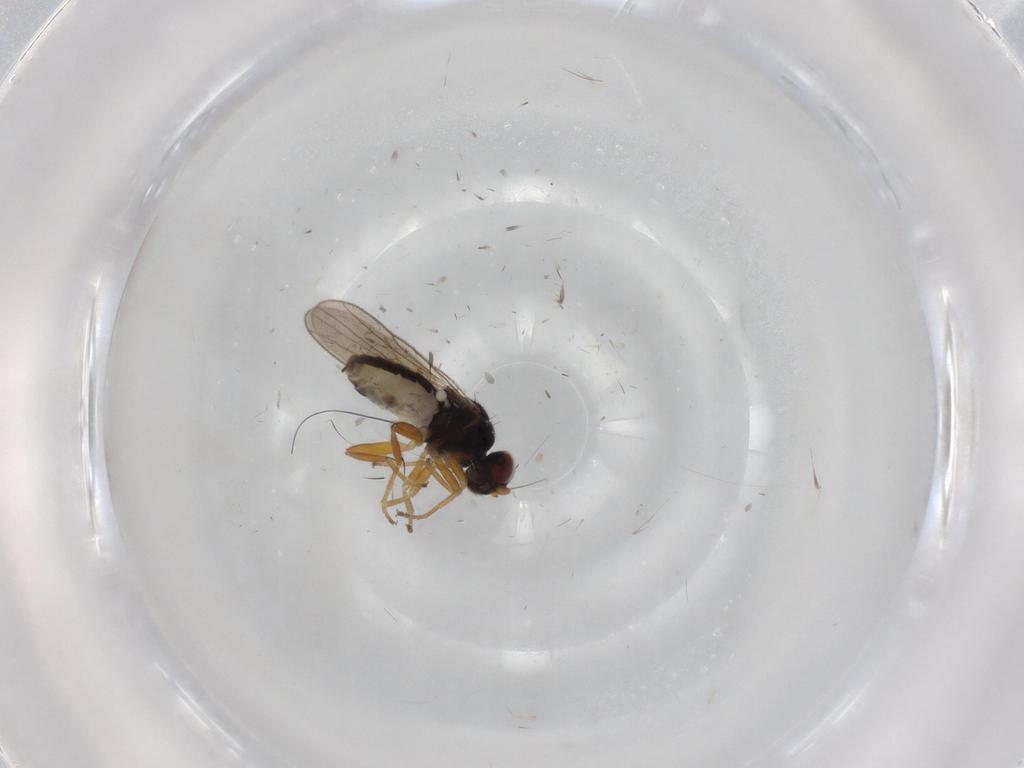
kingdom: Animalia
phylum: Arthropoda
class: Insecta
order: Diptera
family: Chloropidae
